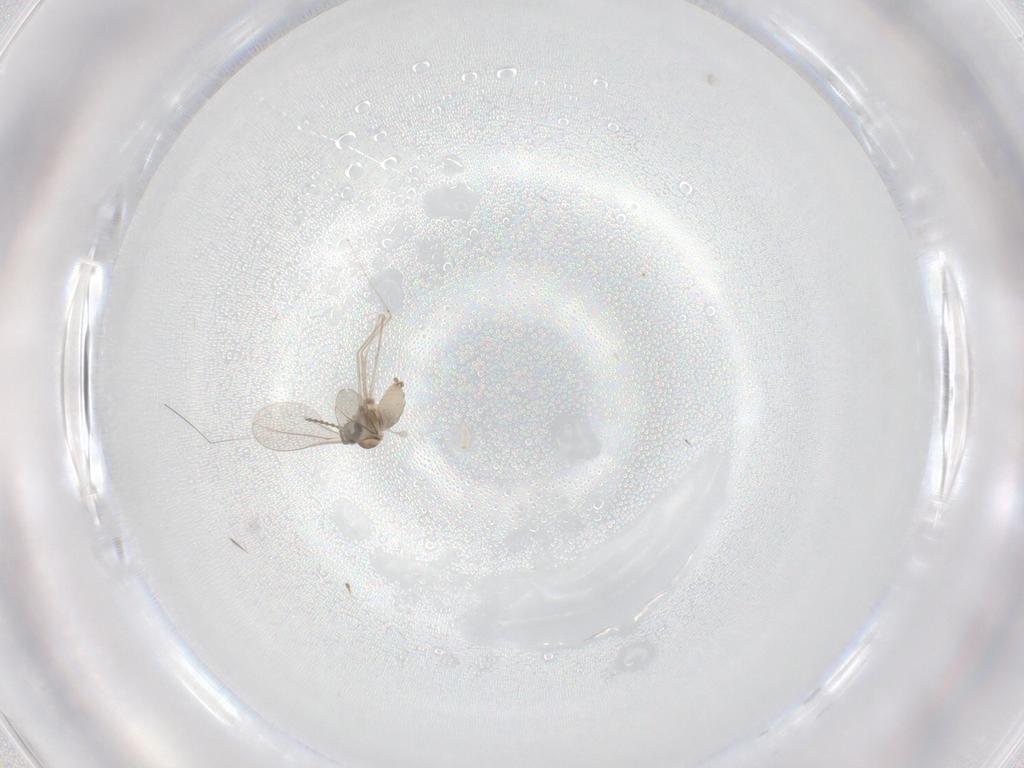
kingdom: Animalia
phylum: Arthropoda
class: Insecta
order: Diptera
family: Cecidomyiidae
